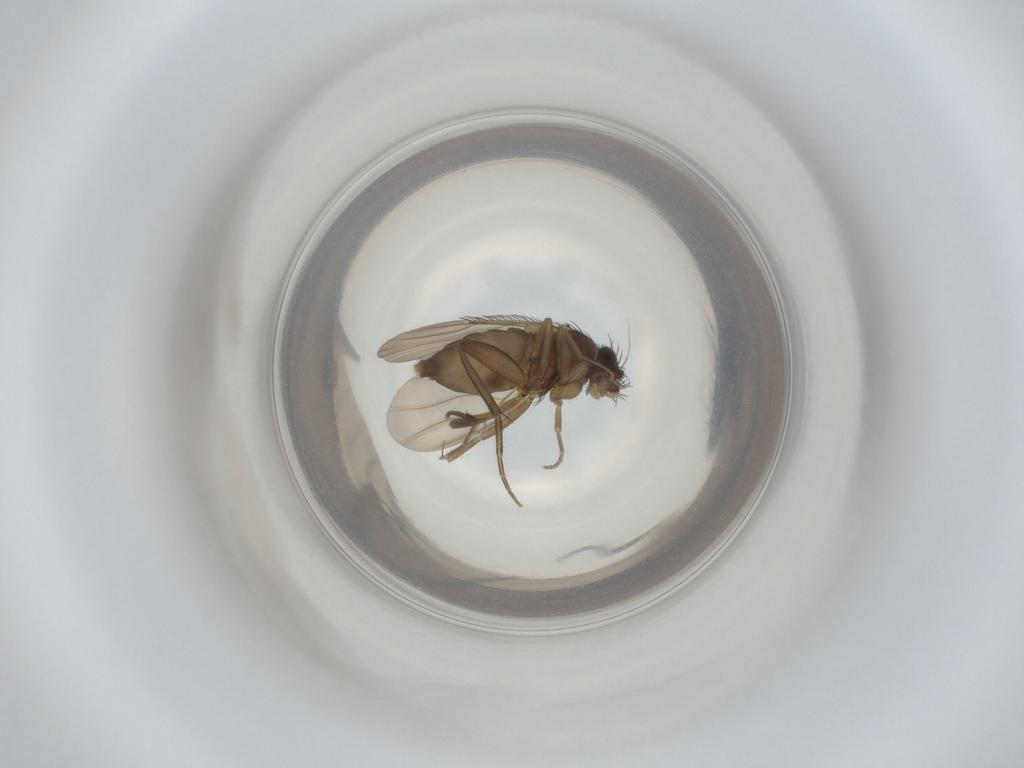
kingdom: Animalia
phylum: Arthropoda
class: Insecta
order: Diptera
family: Phoridae
